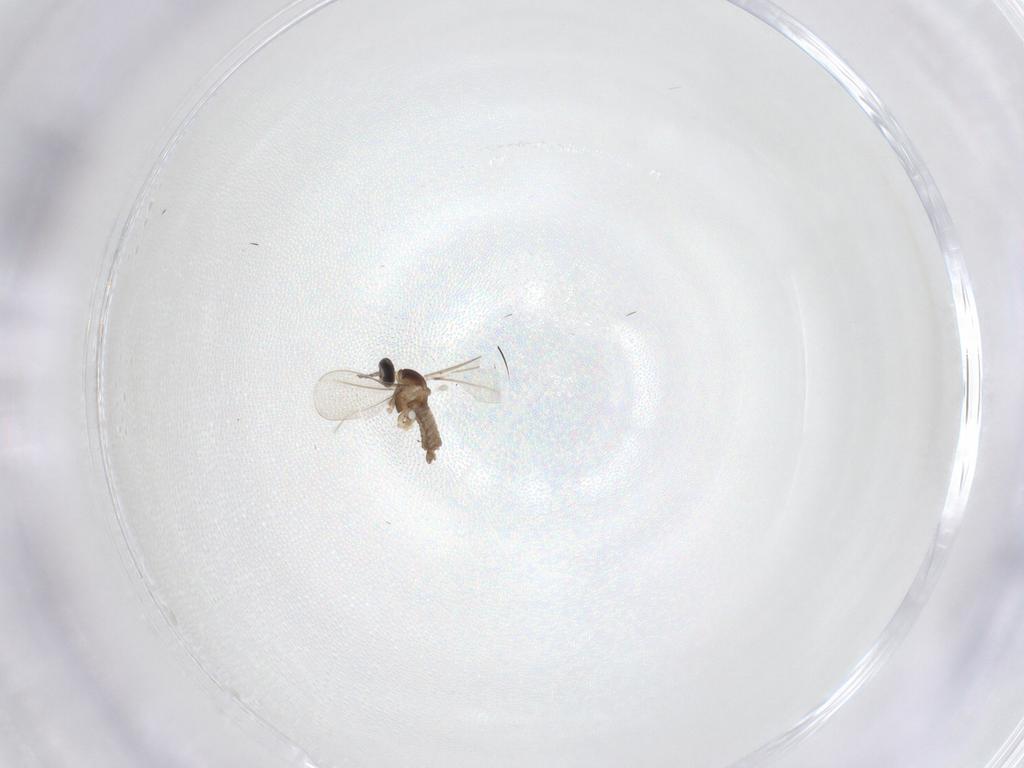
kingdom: Animalia
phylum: Arthropoda
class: Insecta
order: Diptera
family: Cecidomyiidae
